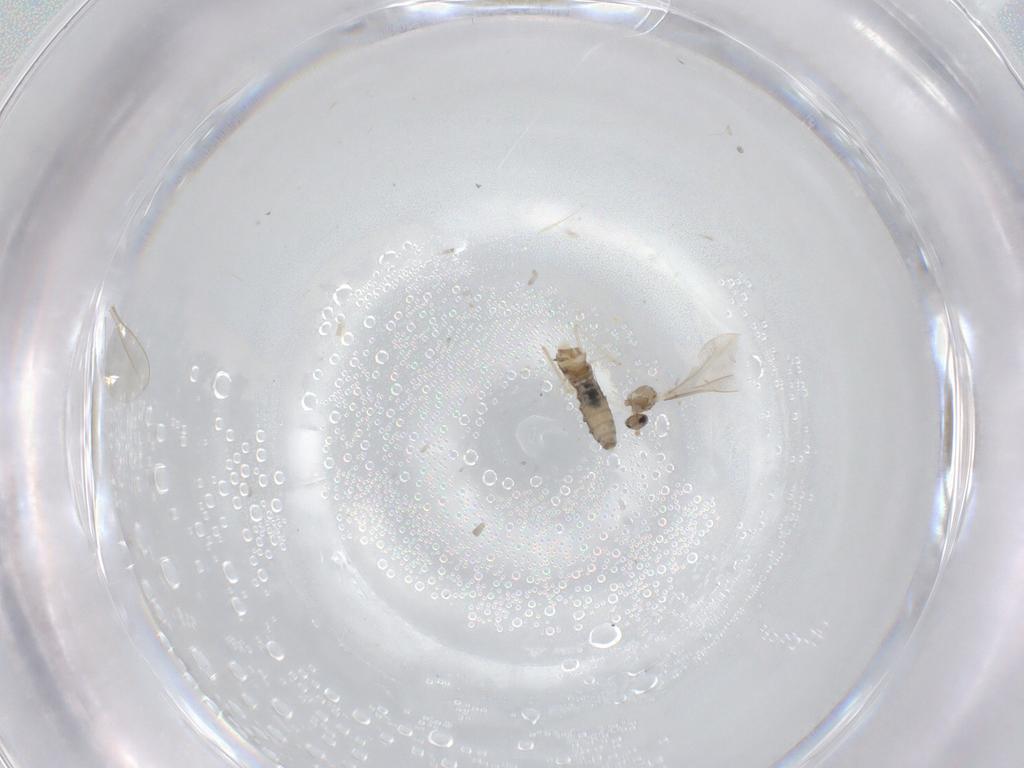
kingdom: Animalia
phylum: Arthropoda
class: Insecta
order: Diptera
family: Cecidomyiidae
